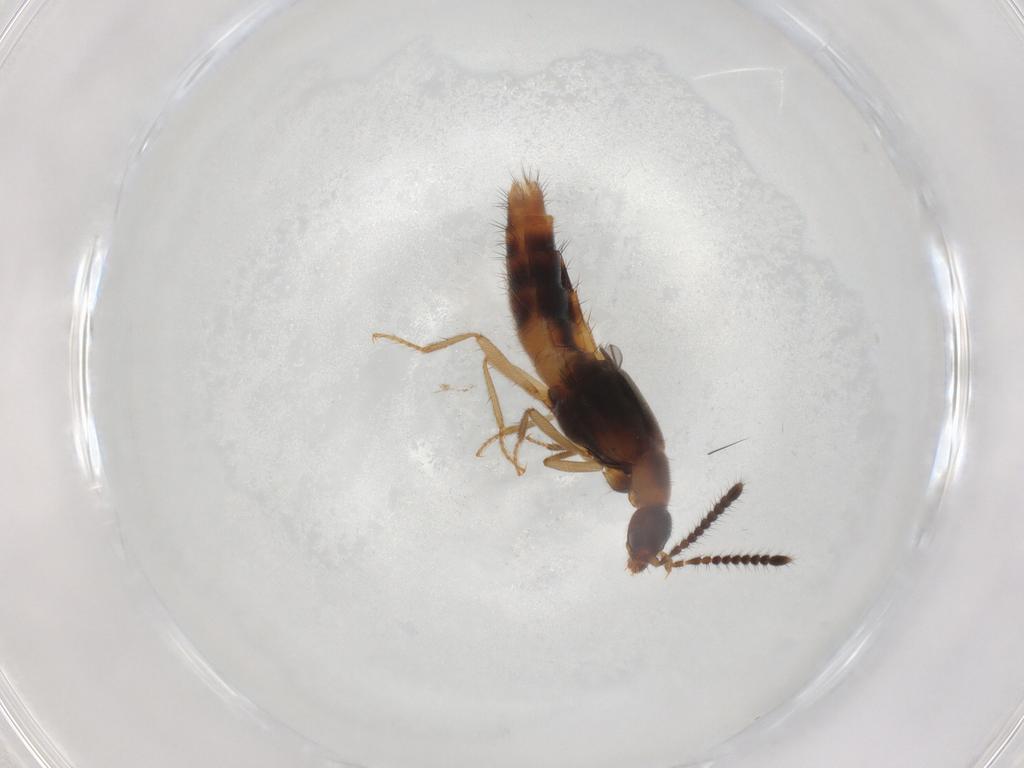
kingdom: Animalia
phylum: Arthropoda
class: Insecta
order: Coleoptera
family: Staphylinidae
